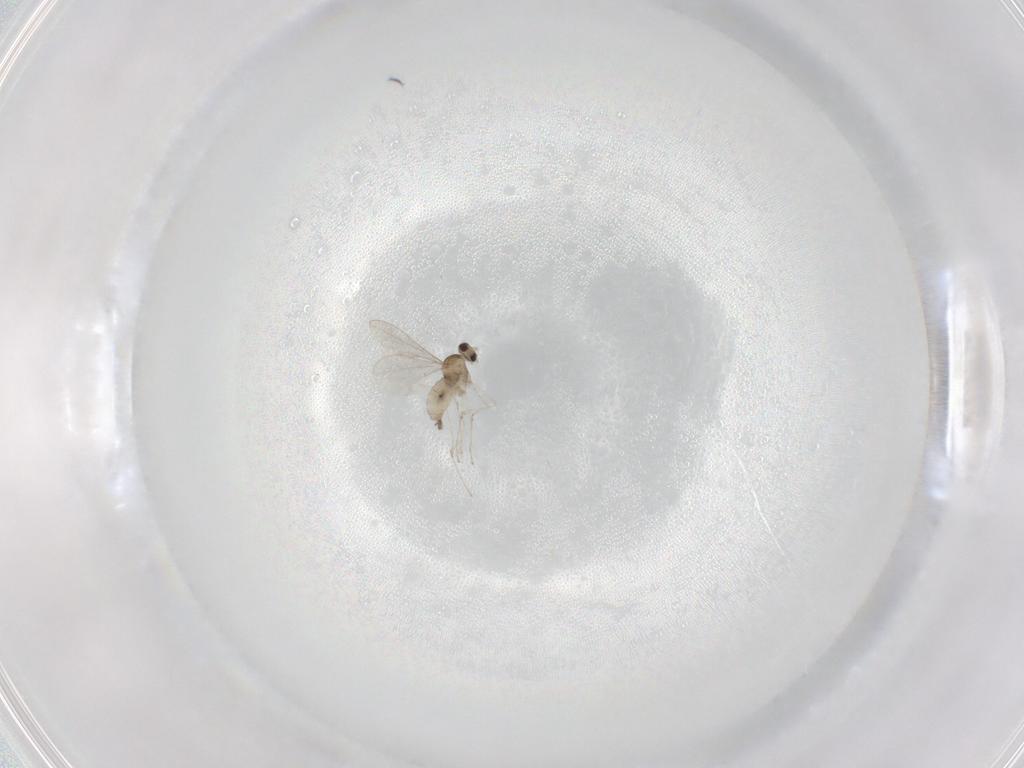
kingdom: Animalia
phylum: Arthropoda
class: Insecta
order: Diptera
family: Cecidomyiidae
